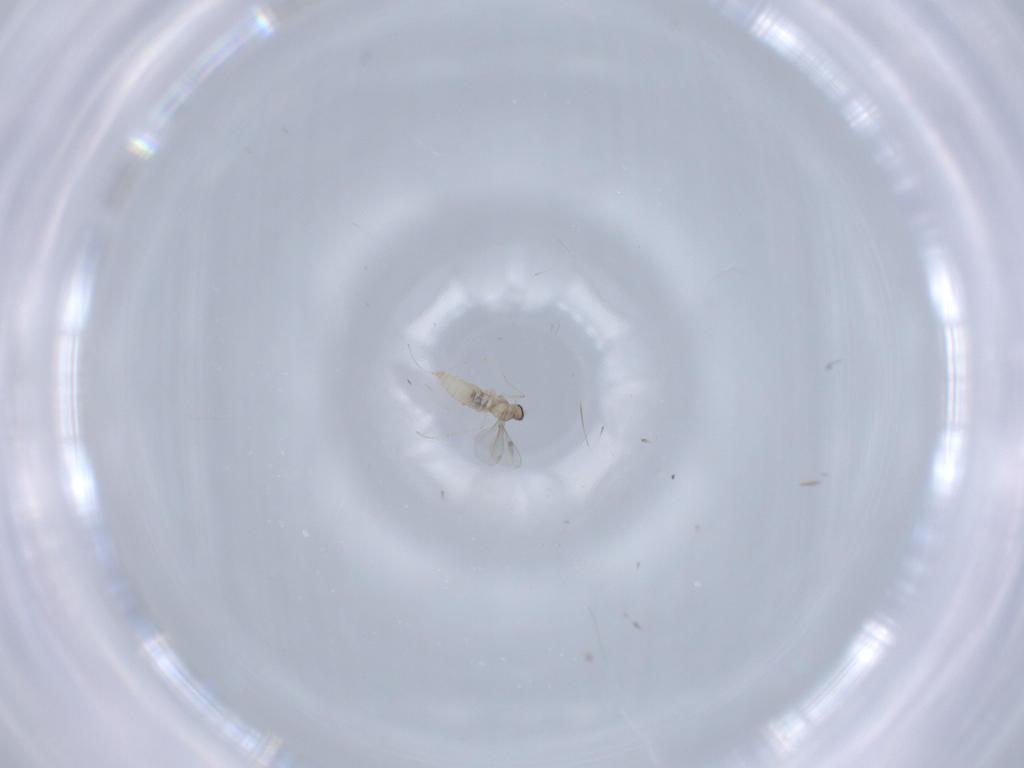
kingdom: Animalia
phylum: Arthropoda
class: Insecta
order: Diptera
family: Cecidomyiidae
